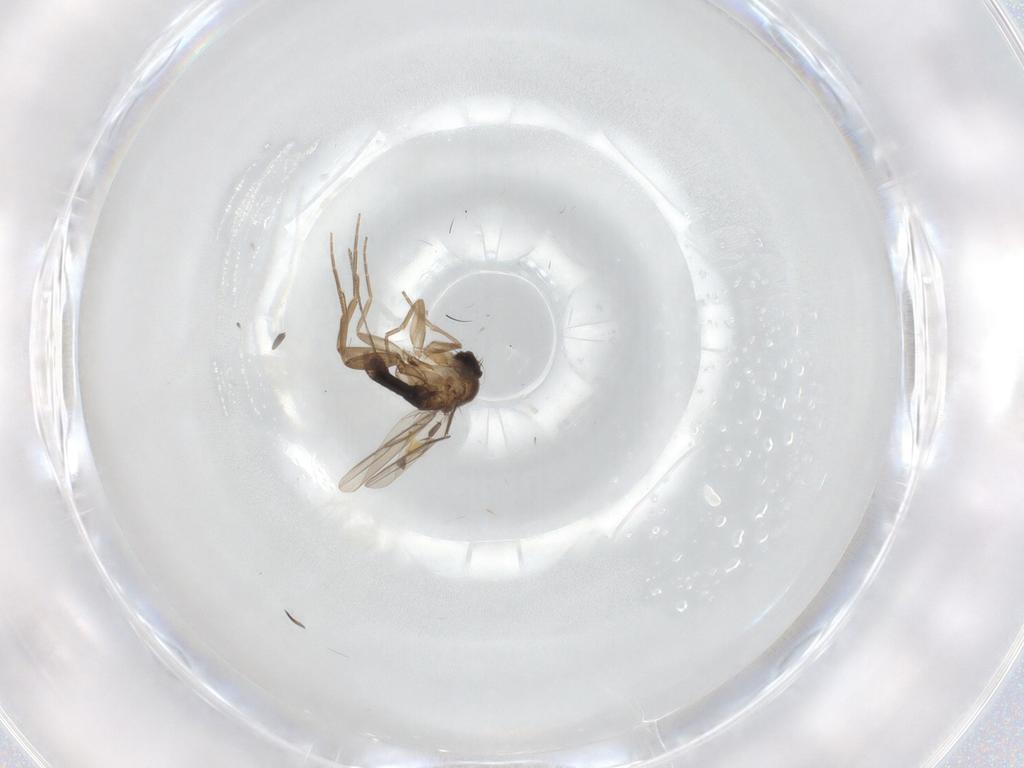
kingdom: Animalia
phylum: Arthropoda
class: Insecta
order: Diptera
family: Phoridae
